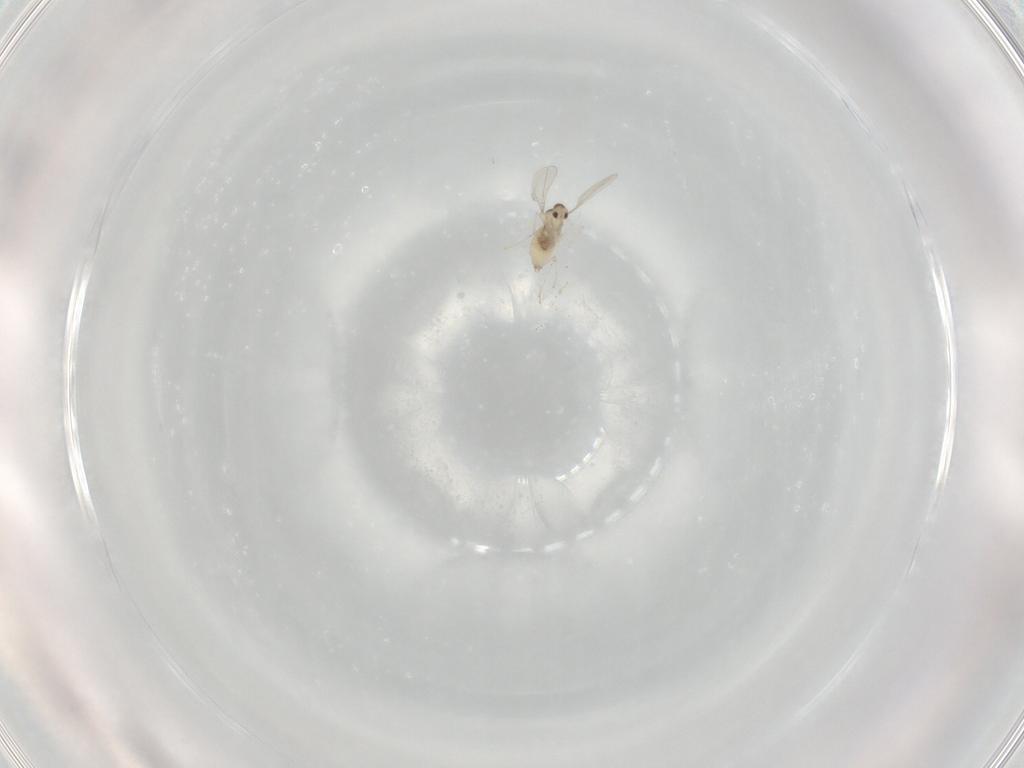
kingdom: Animalia
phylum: Arthropoda
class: Insecta
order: Diptera
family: Cecidomyiidae
